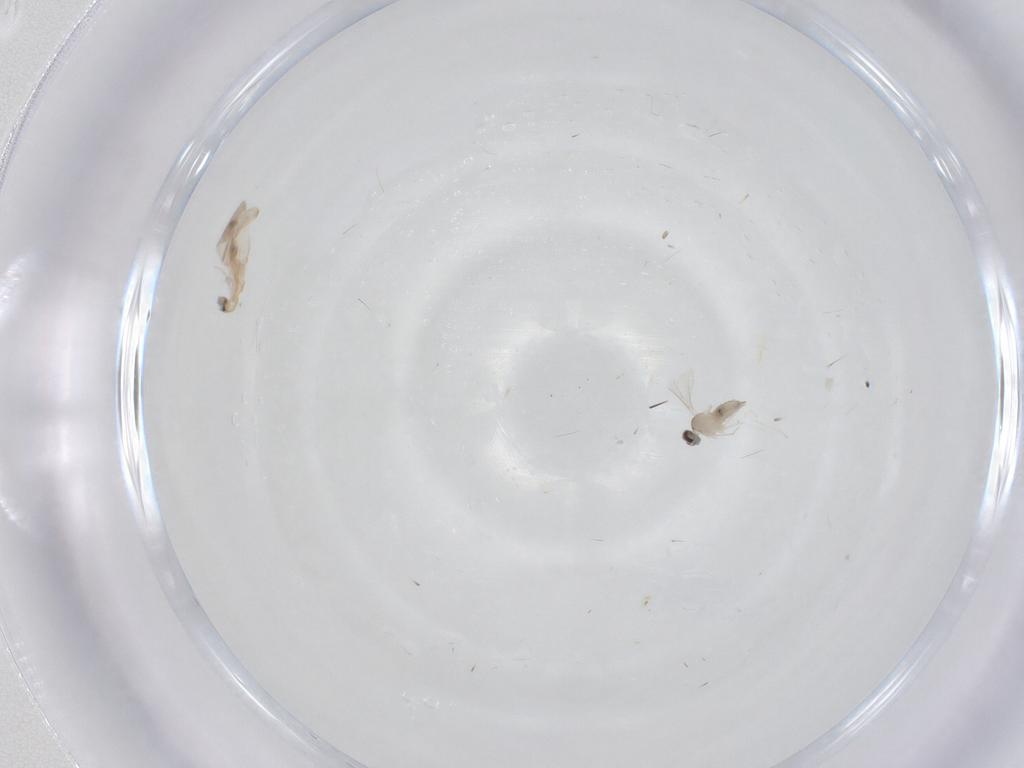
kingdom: Animalia
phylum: Arthropoda
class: Insecta
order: Diptera
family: Cecidomyiidae
